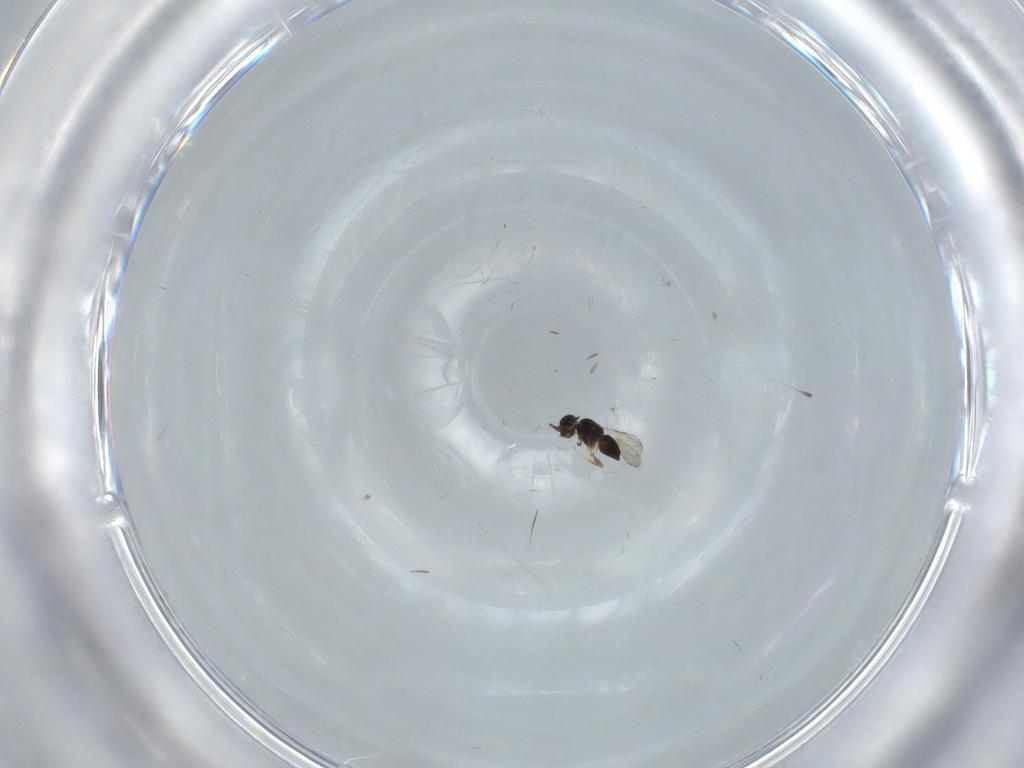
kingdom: Animalia
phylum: Arthropoda
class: Insecta
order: Hymenoptera
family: Ceraphronidae
